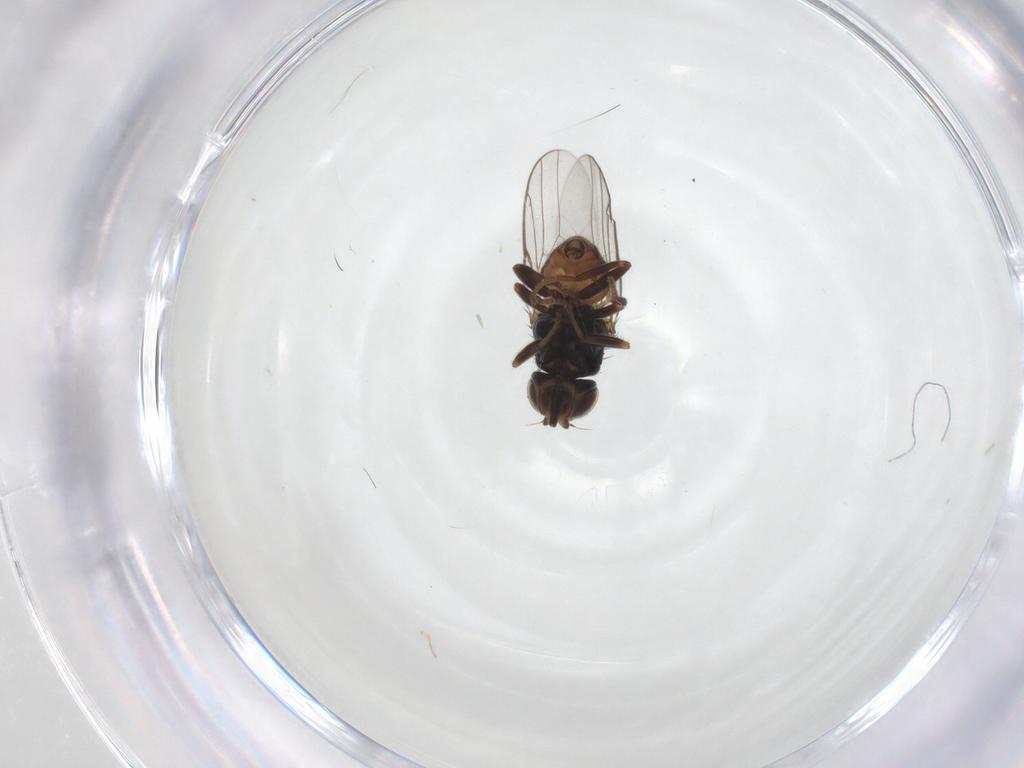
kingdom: Animalia
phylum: Arthropoda
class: Insecta
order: Diptera
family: Chloropidae
